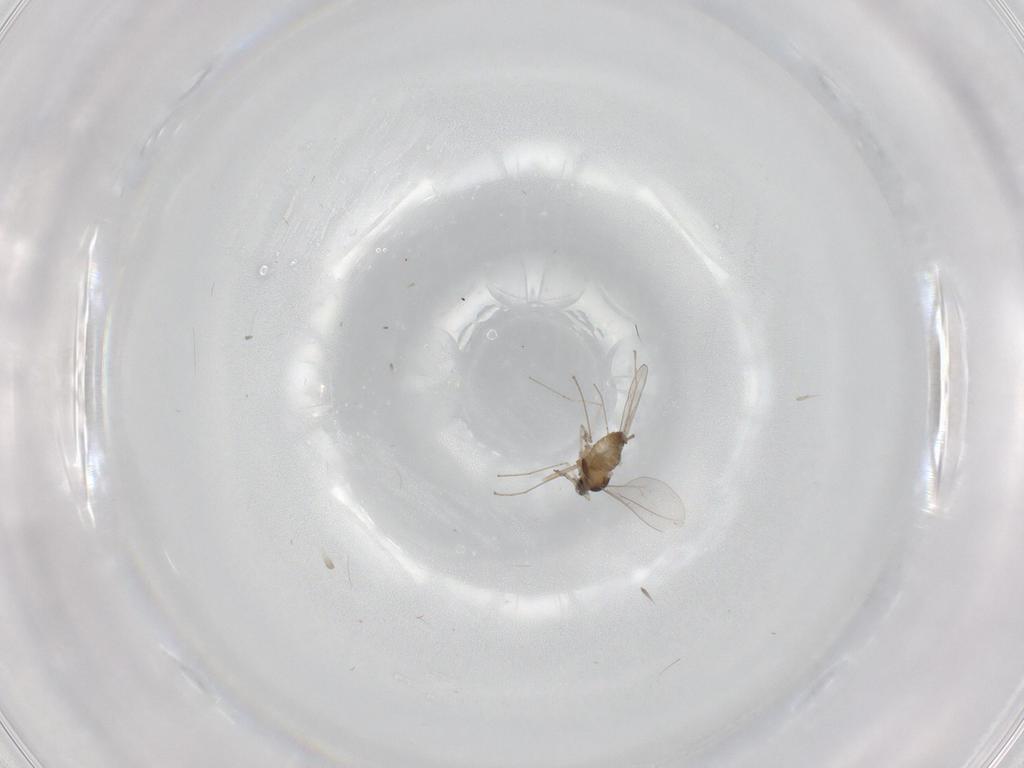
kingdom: Animalia
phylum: Arthropoda
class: Insecta
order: Diptera
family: Cecidomyiidae
